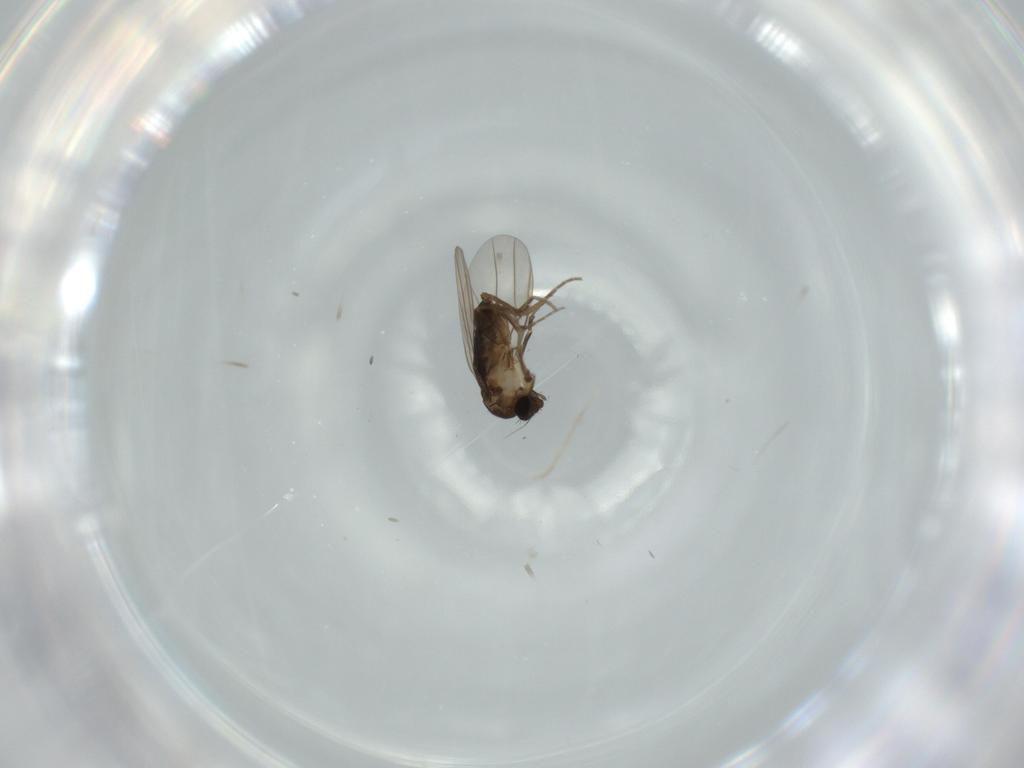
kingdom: Animalia
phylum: Arthropoda
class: Insecta
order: Diptera
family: Phoridae
